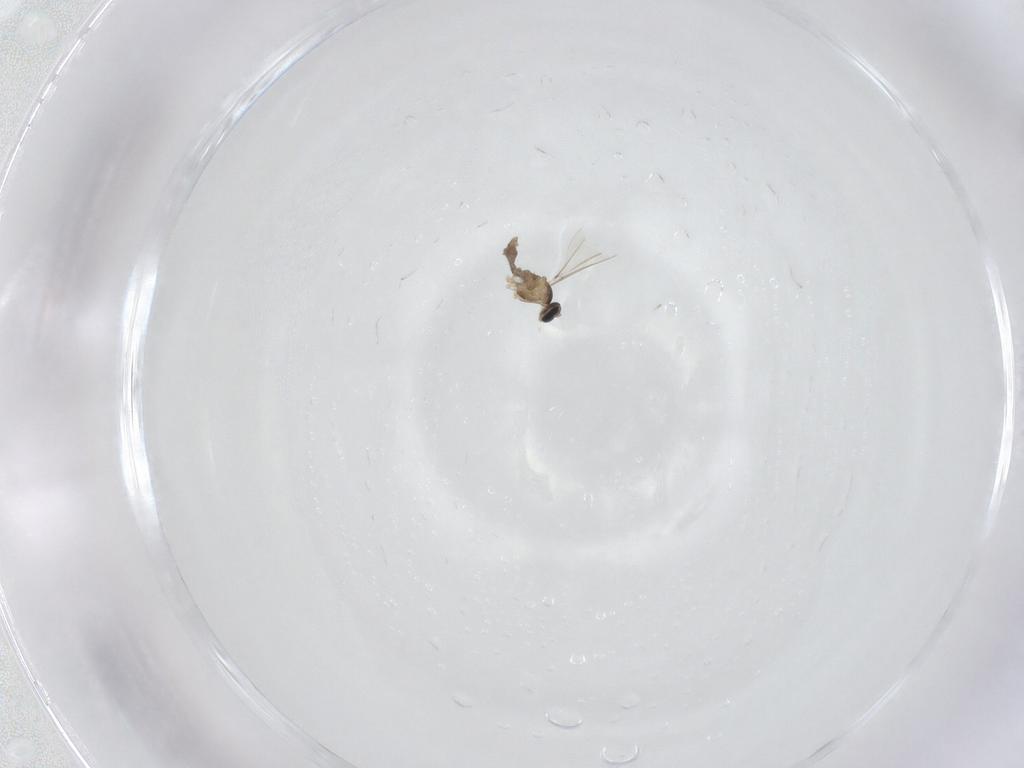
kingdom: Animalia
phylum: Arthropoda
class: Insecta
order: Diptera
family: Cecidomyiidae
